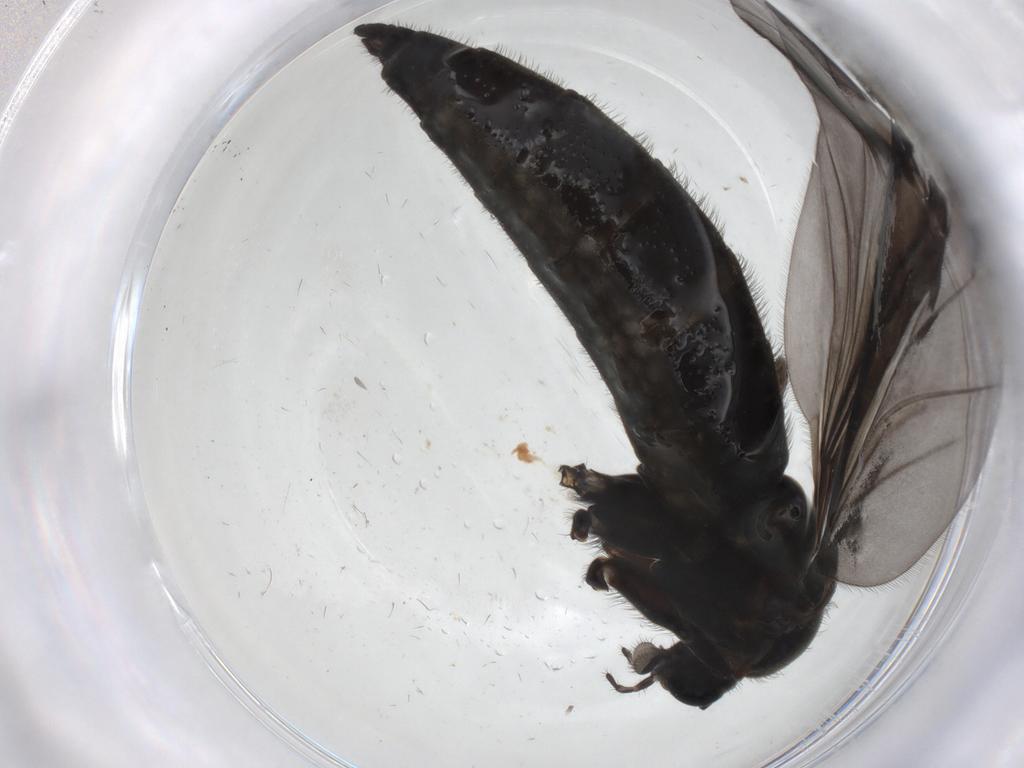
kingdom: Animalia
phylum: Arthropoda
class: Insecta
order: Diptera
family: Sciaridae
